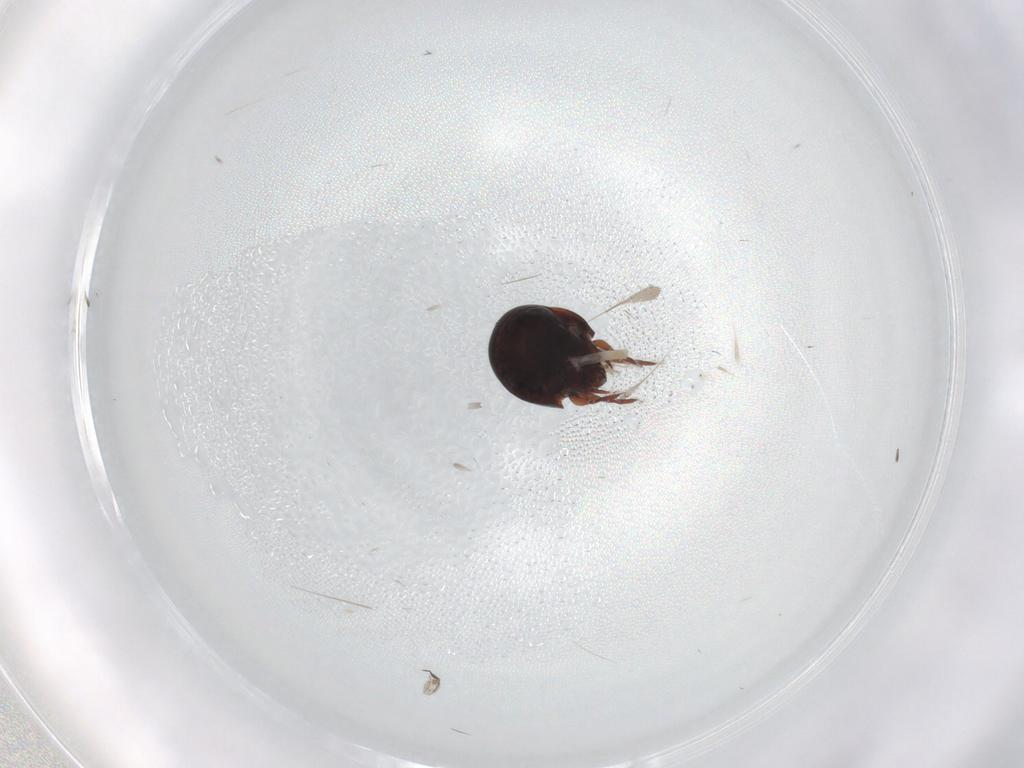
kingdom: Animalia
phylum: Arthropoda
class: Arachnida
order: Sarcoptiformes
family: Mochlozetidae
